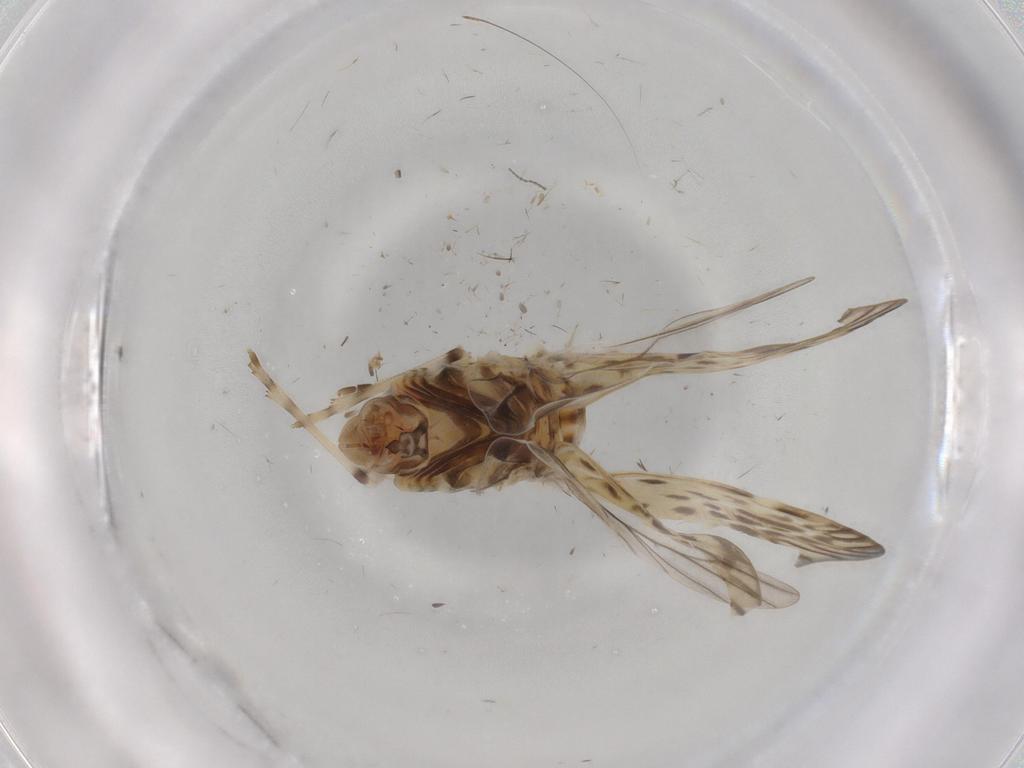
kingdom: Animalia
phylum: Arthropoda
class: Insecta
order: Hemiptera
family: Derbidae
